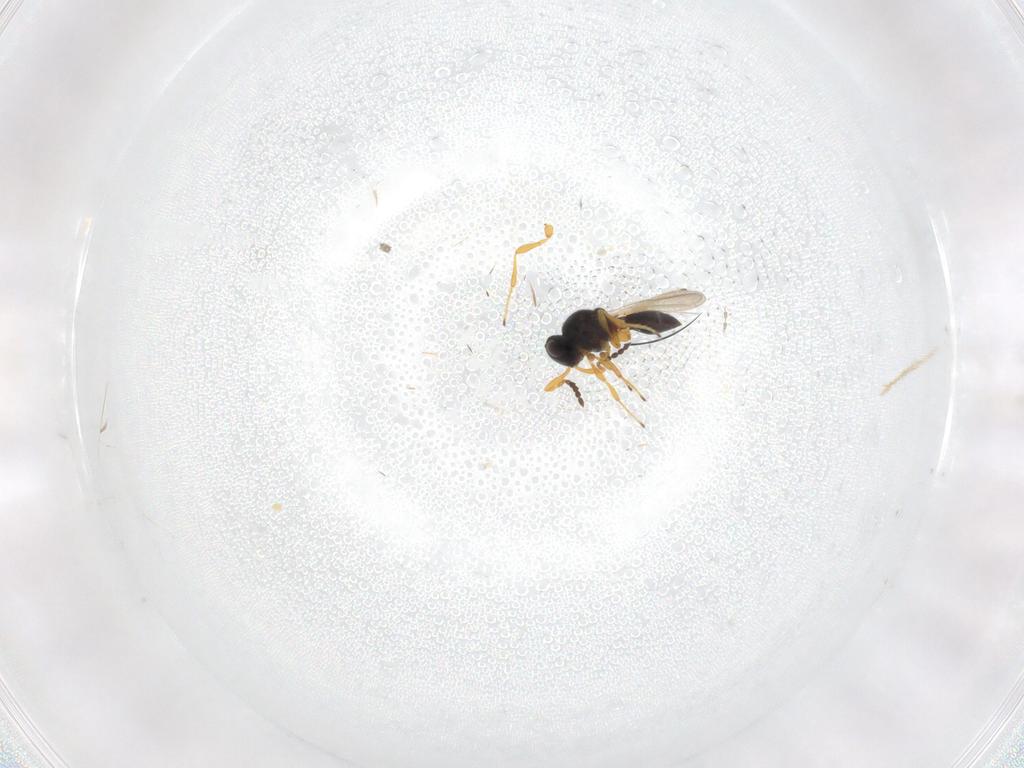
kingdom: Animalia
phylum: Arthropoda
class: Insecta
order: Hymenoptera
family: Platygastridae
